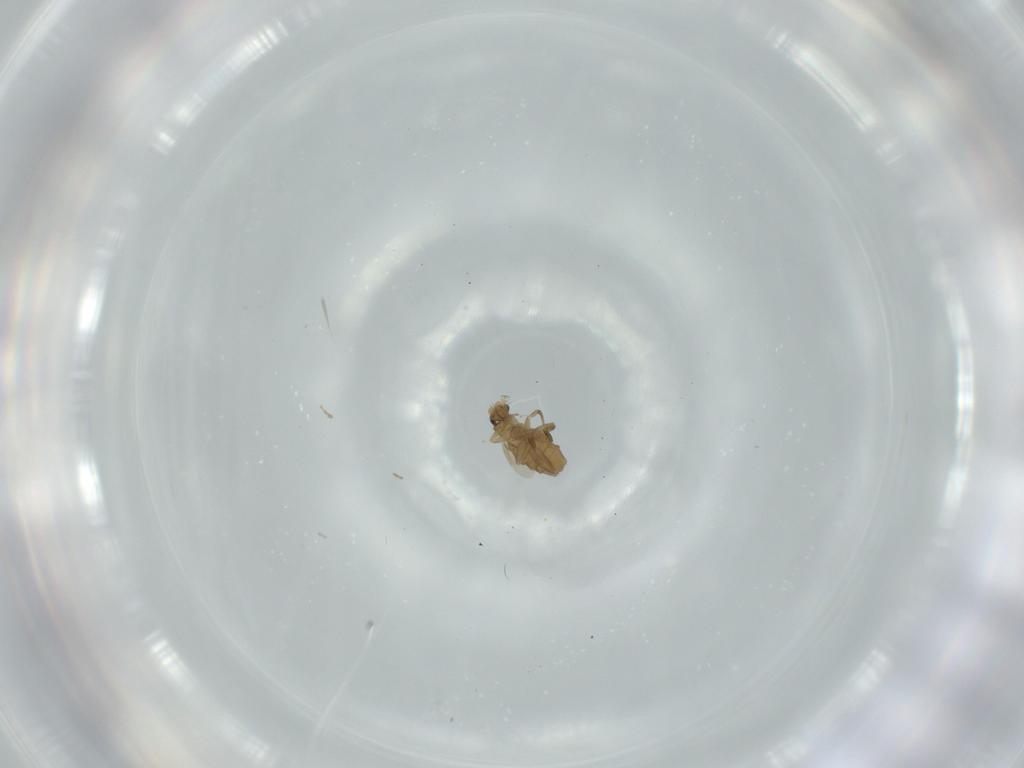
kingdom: Animalia
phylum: Arthropoda
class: Insecta
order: Diptera
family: Phoridae
